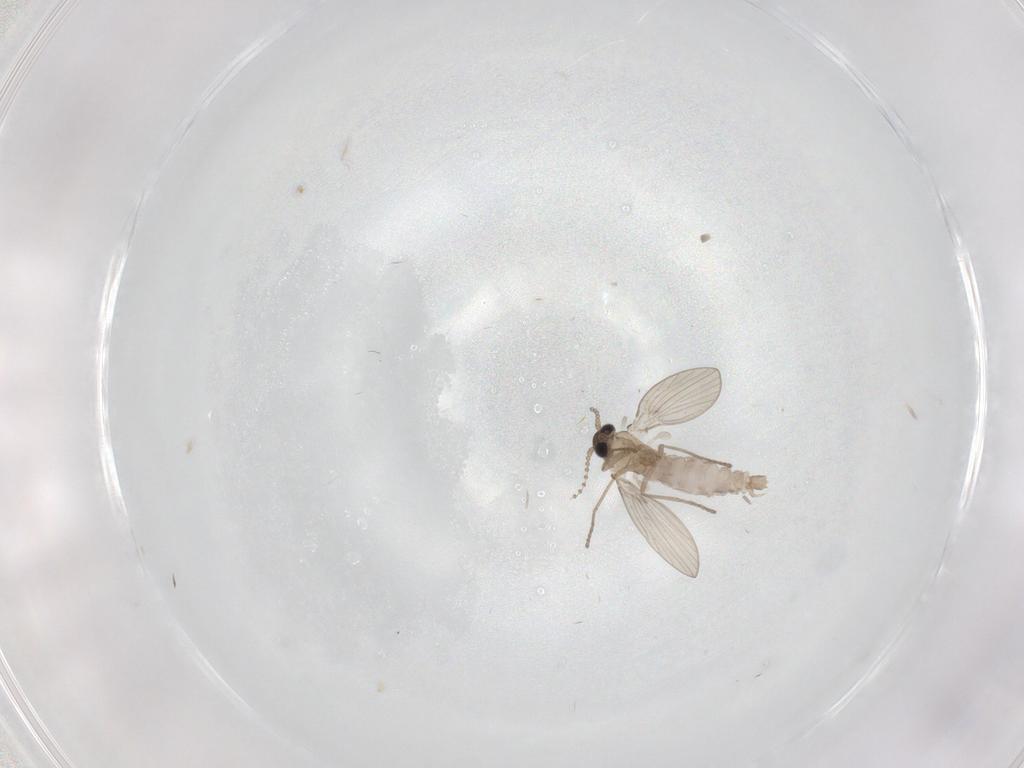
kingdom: Animalia
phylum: Arthropoda
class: Insecta
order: Diptera
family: Psychodidae
